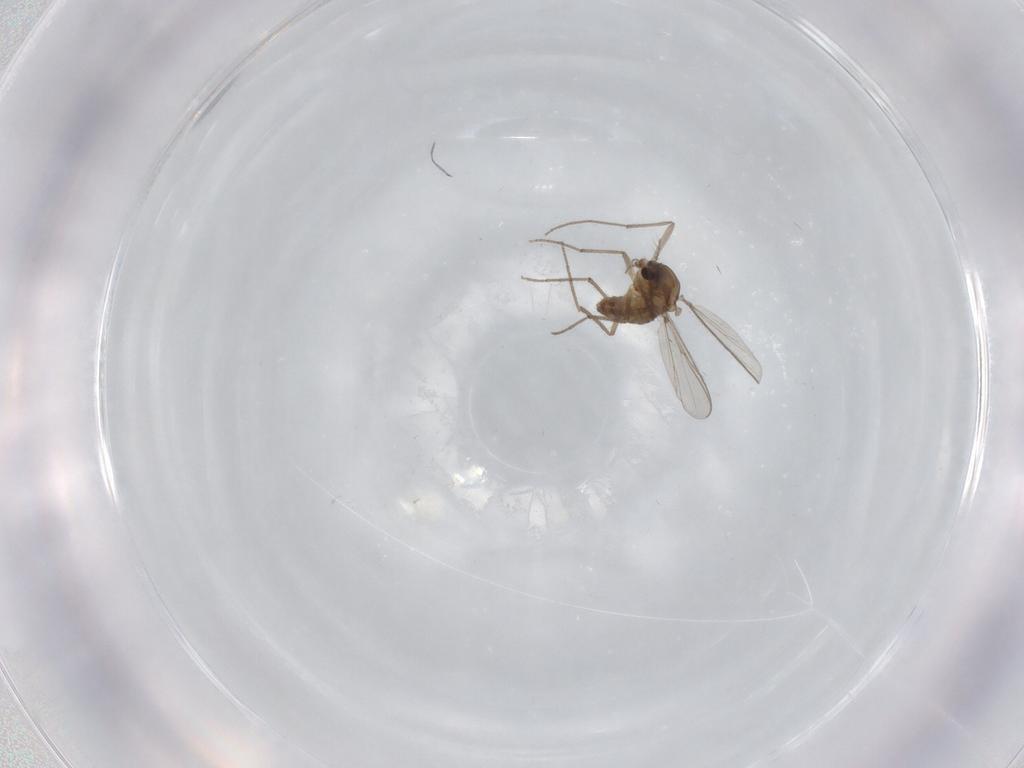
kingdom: Animalia
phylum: Arthropoda
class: Insecta
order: Diptera
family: Chironomidae
